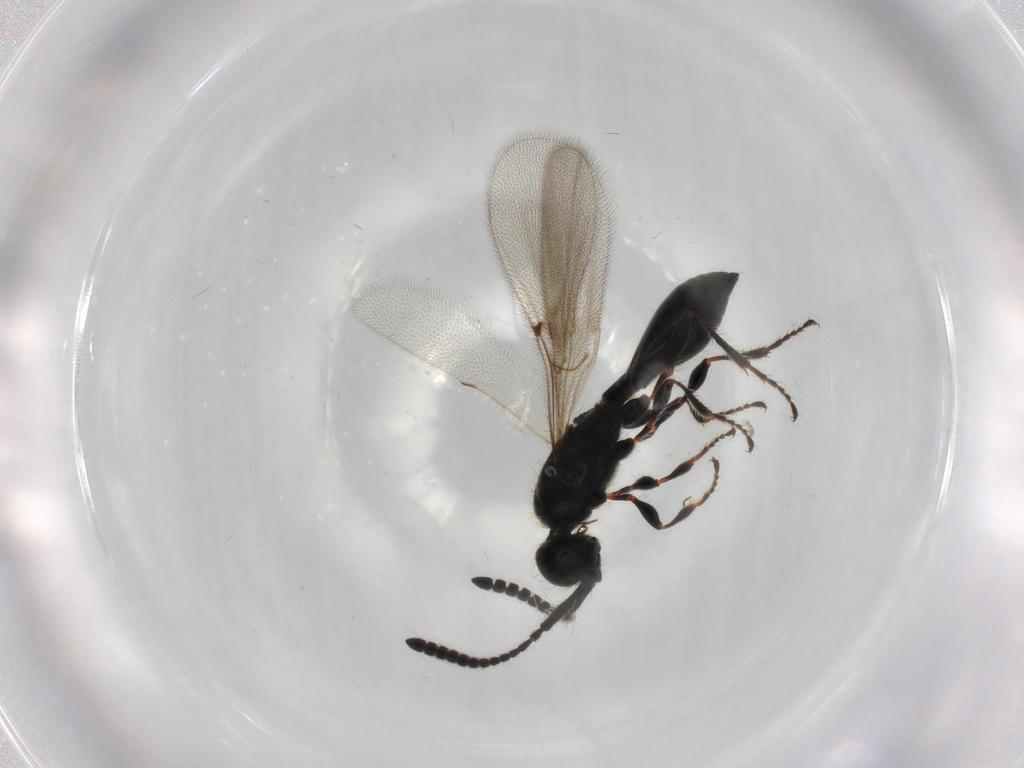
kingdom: Animalia
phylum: Arthropoda
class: Insecta
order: Hymenoptera
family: Diapriidae
